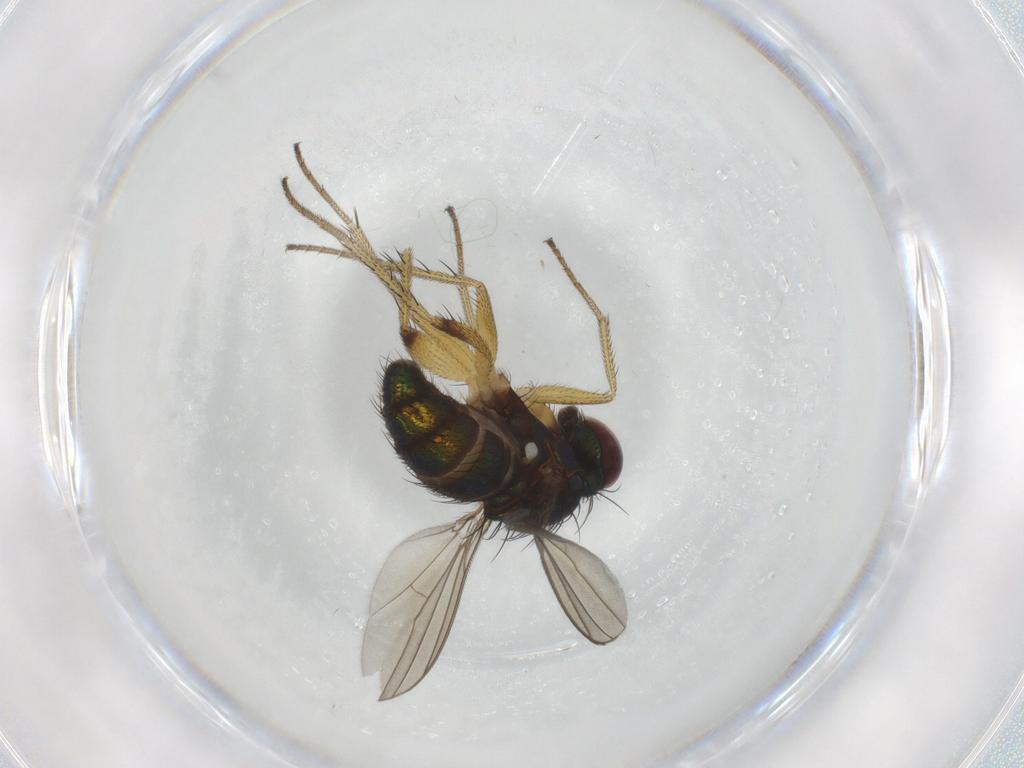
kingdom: Animalia
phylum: Arthropoda
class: Insecta
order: Diptera
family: Dolichopodidae
